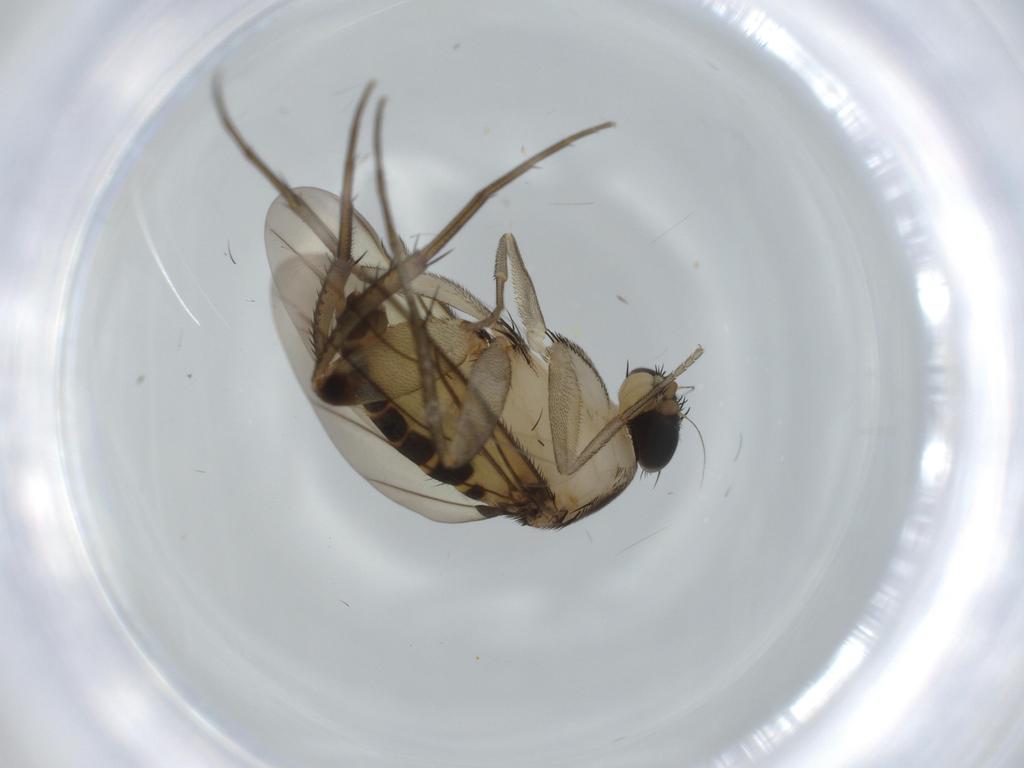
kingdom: Animalia
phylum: Arthropoda
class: Insecta
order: Diptera
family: Phoridae
